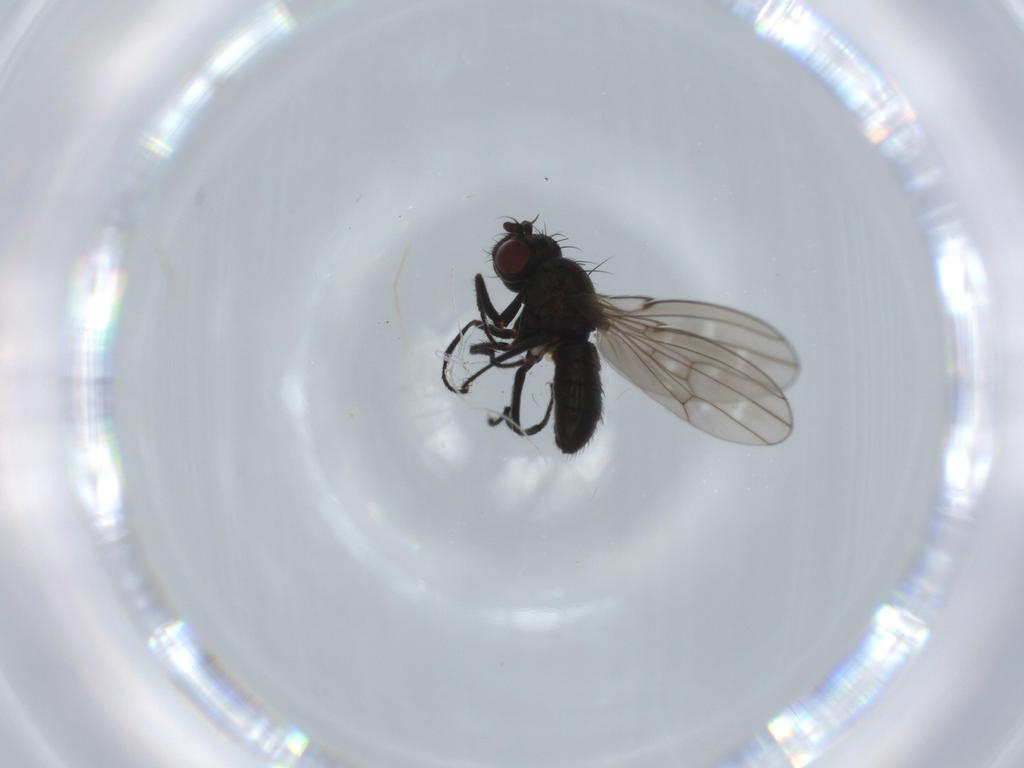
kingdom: Animalia
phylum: Arthropoda
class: Insecta
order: Diptera
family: Ephydridae
